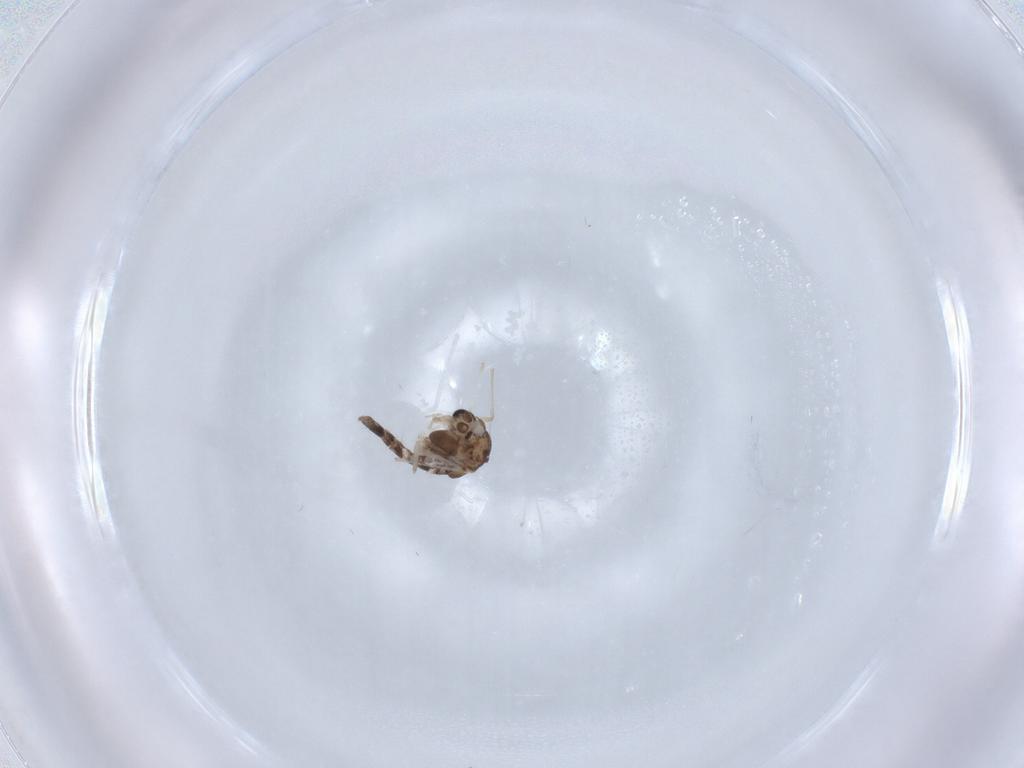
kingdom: Animalia
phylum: Arthropoda
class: Insecta
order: Diptera
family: Chironomidae
